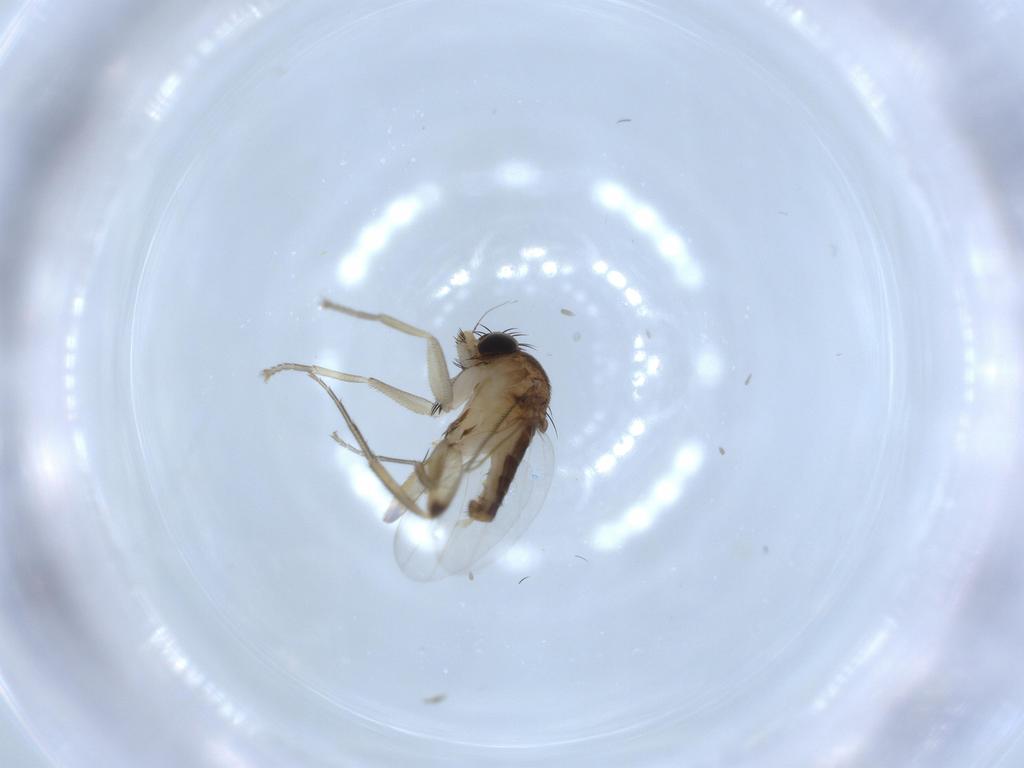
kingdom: Animalia
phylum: Arthropoda
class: Insecta
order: Diptera
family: Phoridae
